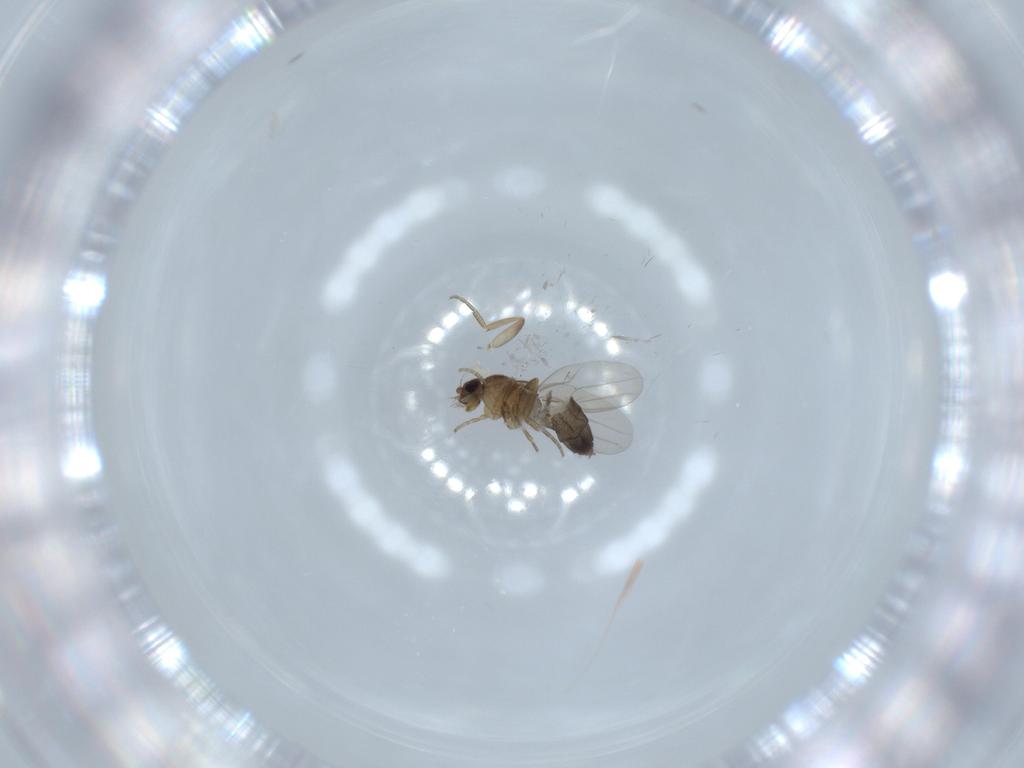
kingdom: Animalia
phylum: Arthropoda
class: Insecta
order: Diptera
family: Phoridae
